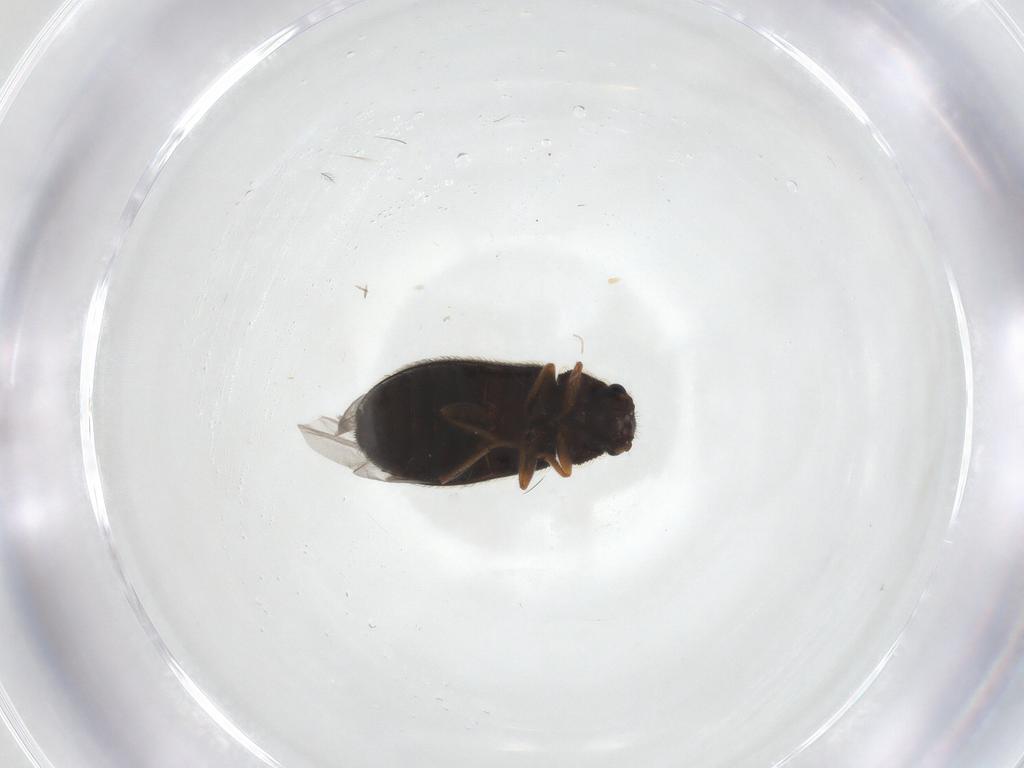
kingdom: Animalia
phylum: Arthropoda
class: Insecta
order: Coleoptera
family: Melyridae
